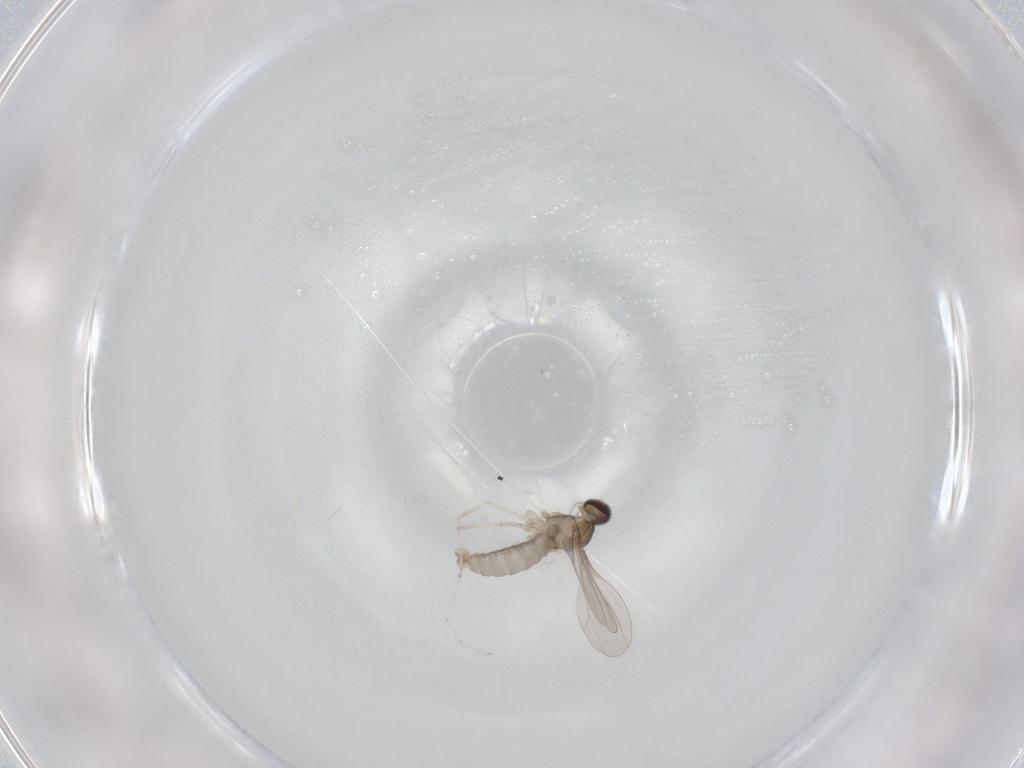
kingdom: Animalia
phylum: Arthropoda
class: Insecta
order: Diptera
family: Cecidomyiidae
